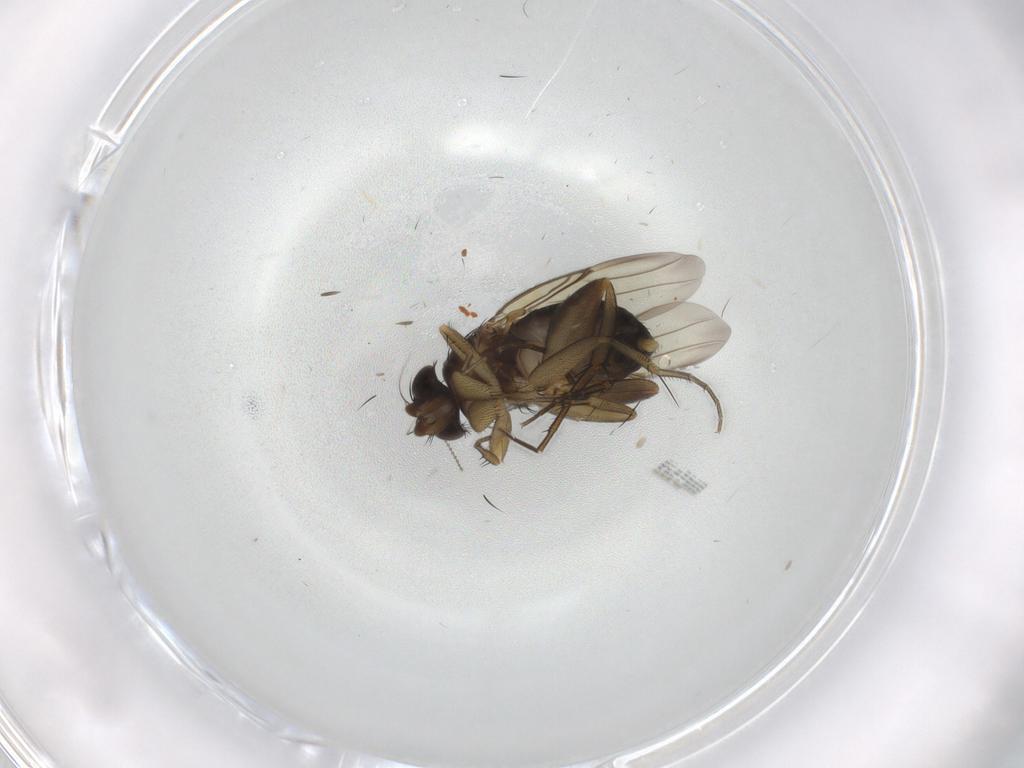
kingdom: Animalia
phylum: Arthropoda
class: Insecta
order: Diptera
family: Phoridae
